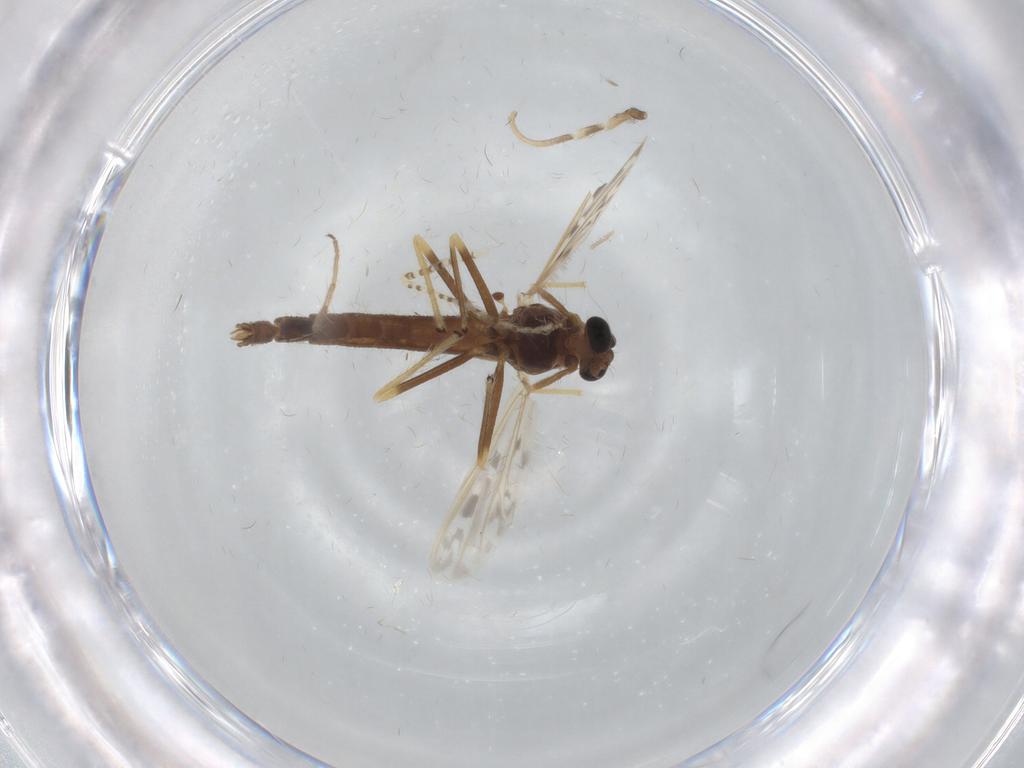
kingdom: Animalia
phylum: Arthropoda
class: Insecta
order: Diptera
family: Chironomidae
